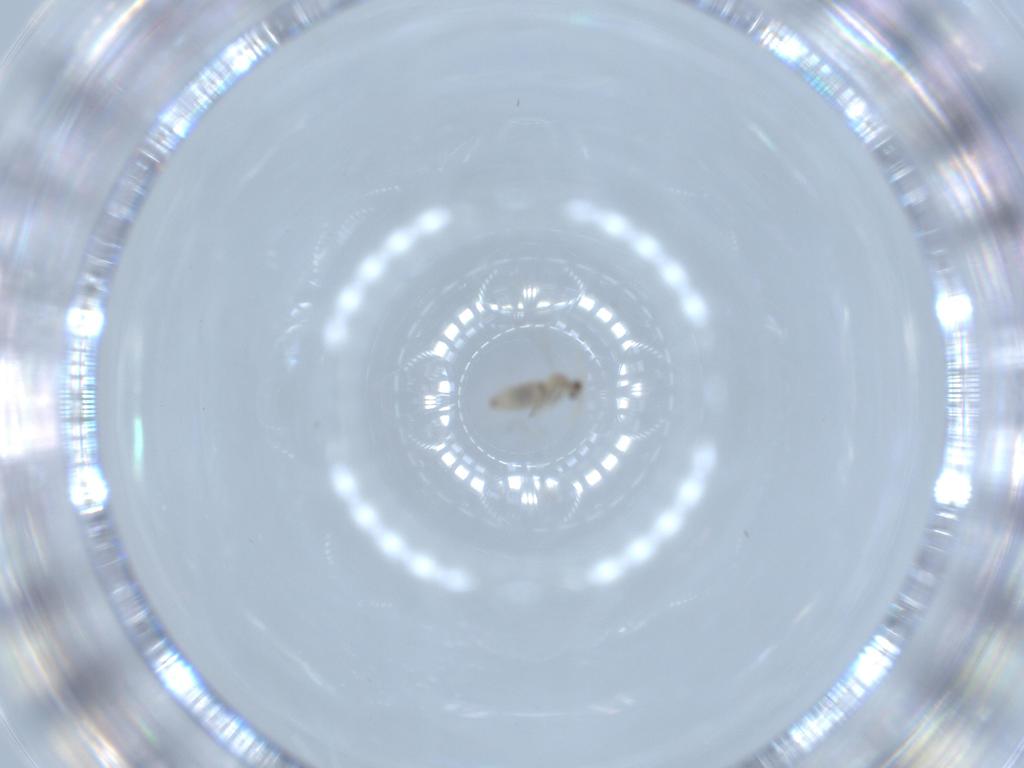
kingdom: Animalia
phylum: Arthropoda
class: Insecta
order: Diptera
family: Cecidomyiidae
